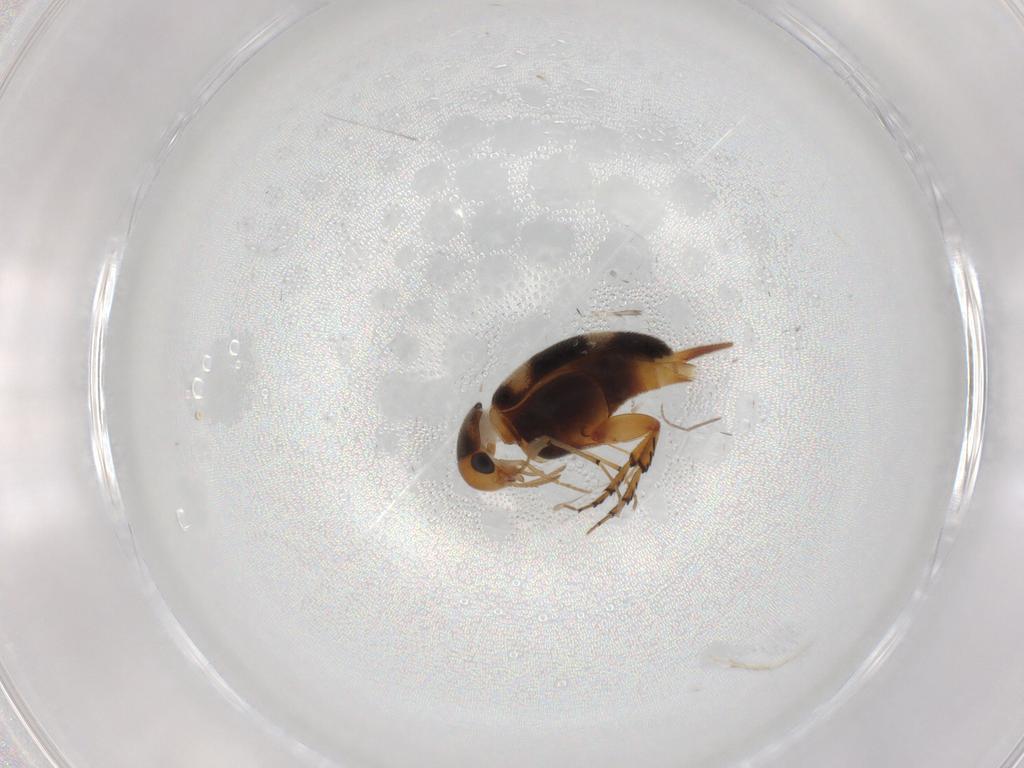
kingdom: Animalia
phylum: Arthropoda
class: Insecta
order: Coleoptera
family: Mordellidae
